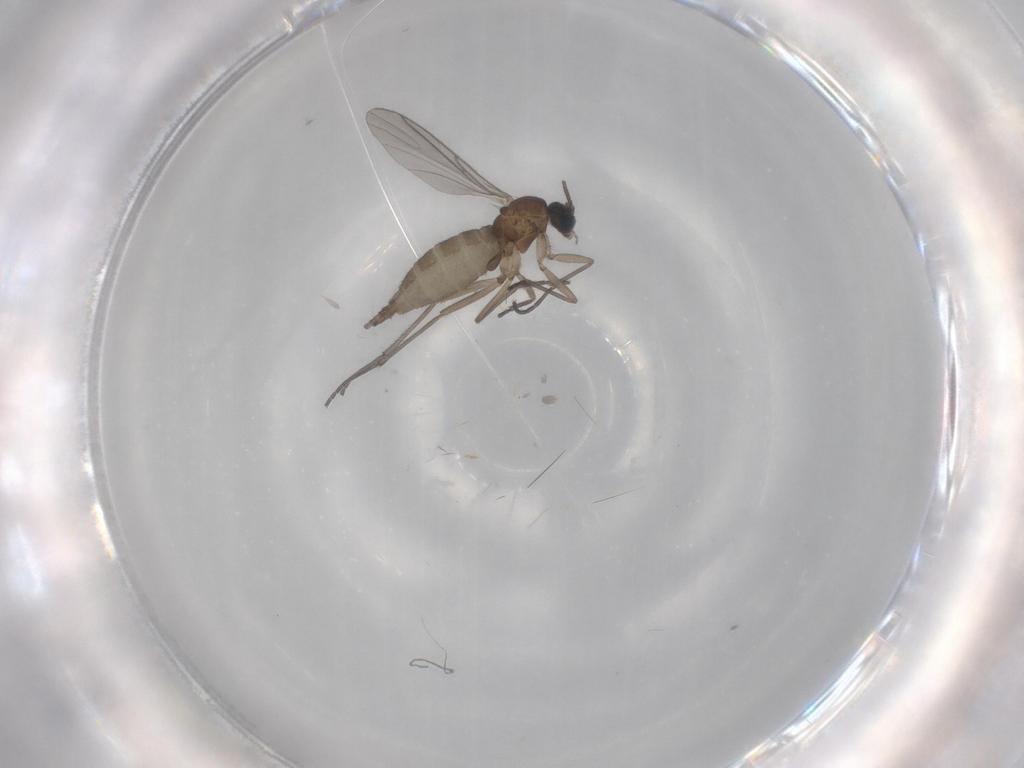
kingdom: Animalia
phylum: Arthropoda
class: Insecta
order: Diptera
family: Sciaridae
